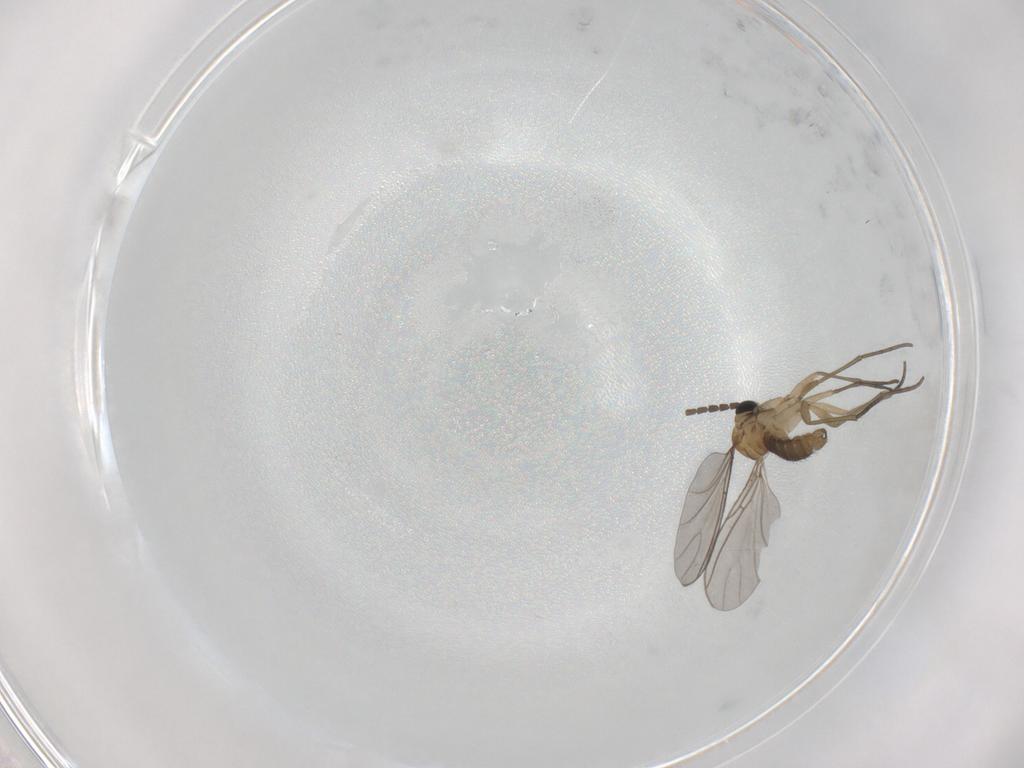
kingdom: Animalia
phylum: Arthropoda
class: Insecta
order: Diptera
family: Sciaridae
